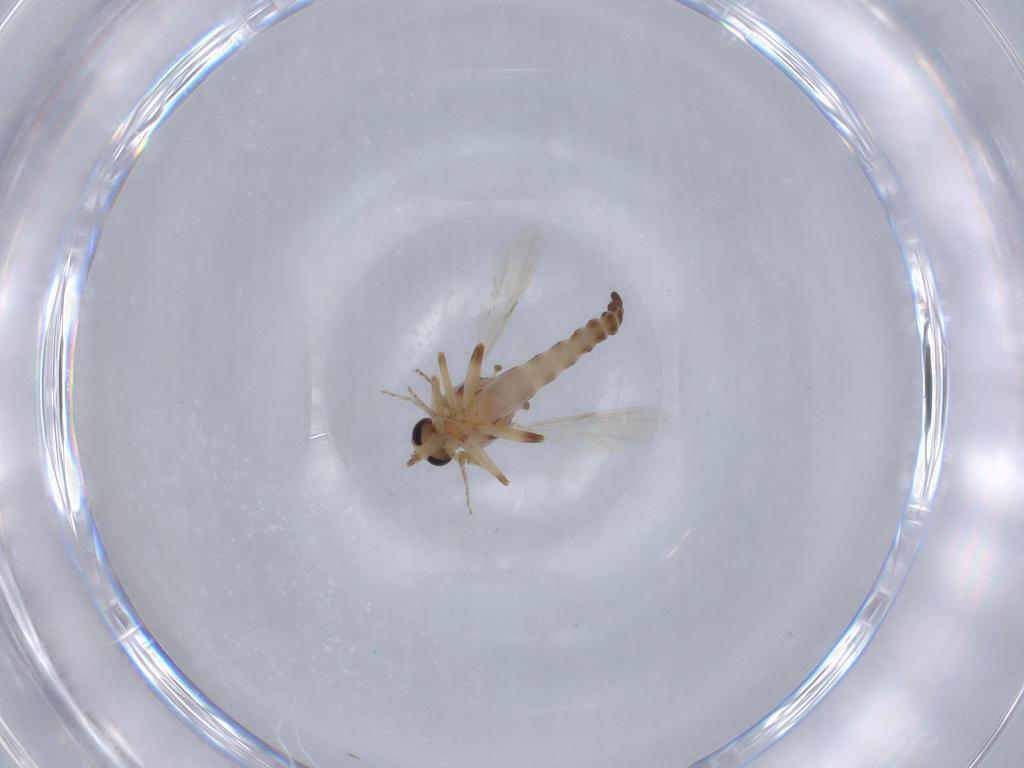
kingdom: Animalia
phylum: Arthropoda
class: Insecta
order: Diptera
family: Ceratopogonidae
